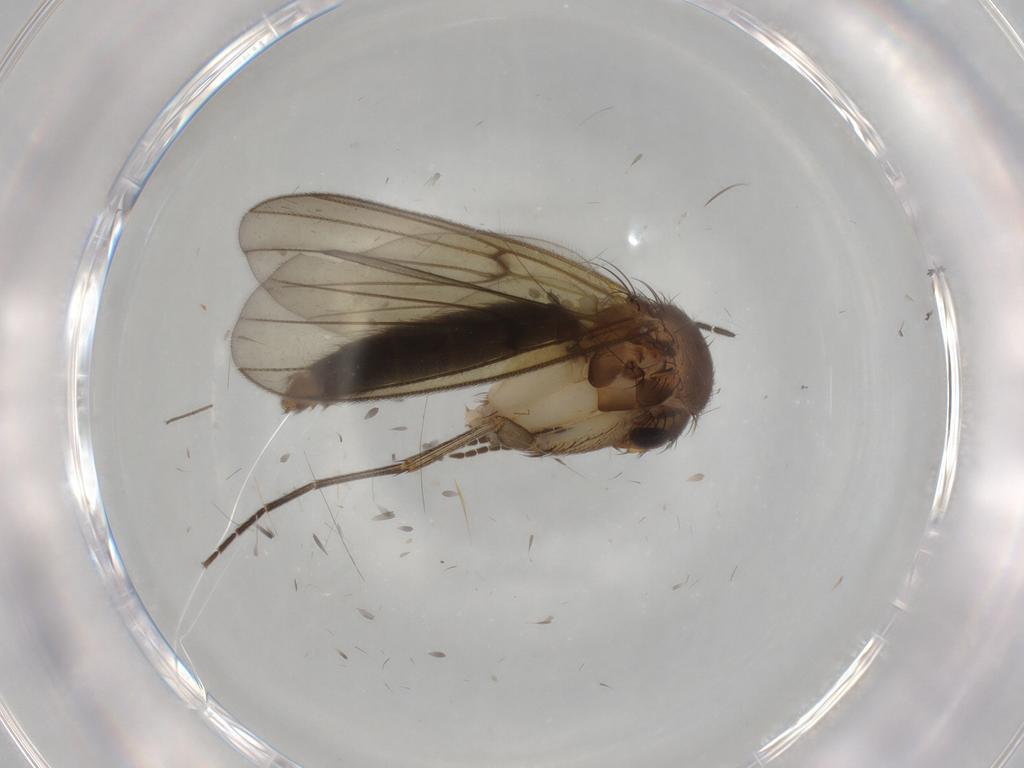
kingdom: Animalia
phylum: Arthropoda
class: Insecta
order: Diptera
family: Mycetophilidae
